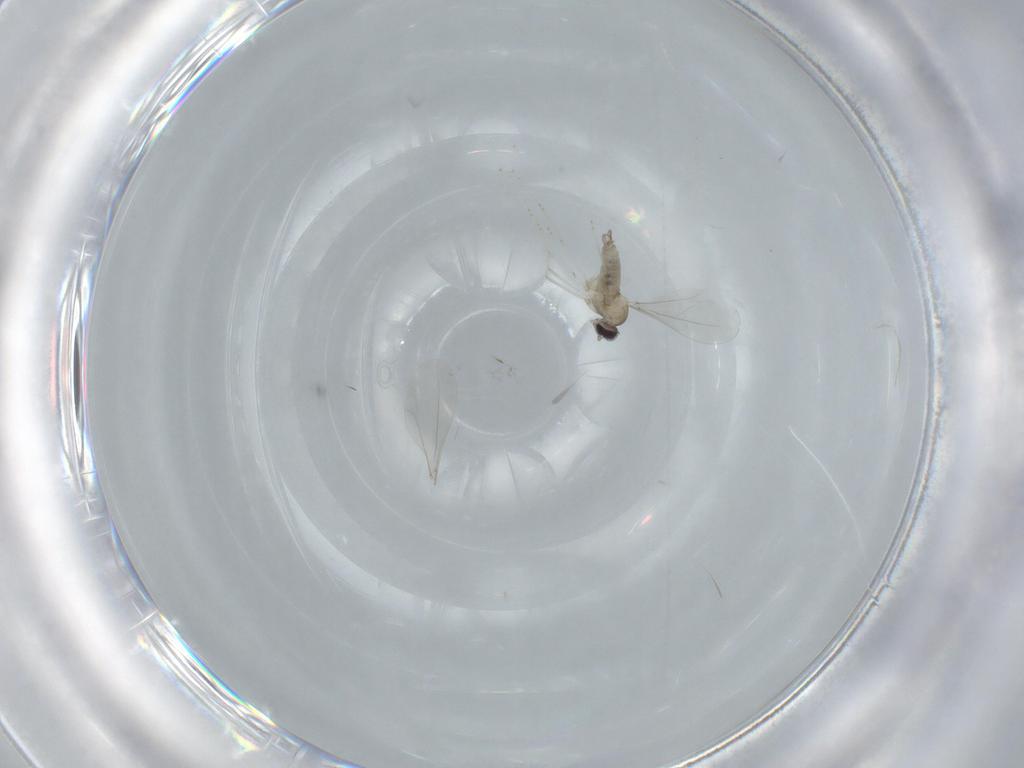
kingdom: Animalia
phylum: Arthropoda
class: Insecta
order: Diptera
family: Cecidomyiidae
